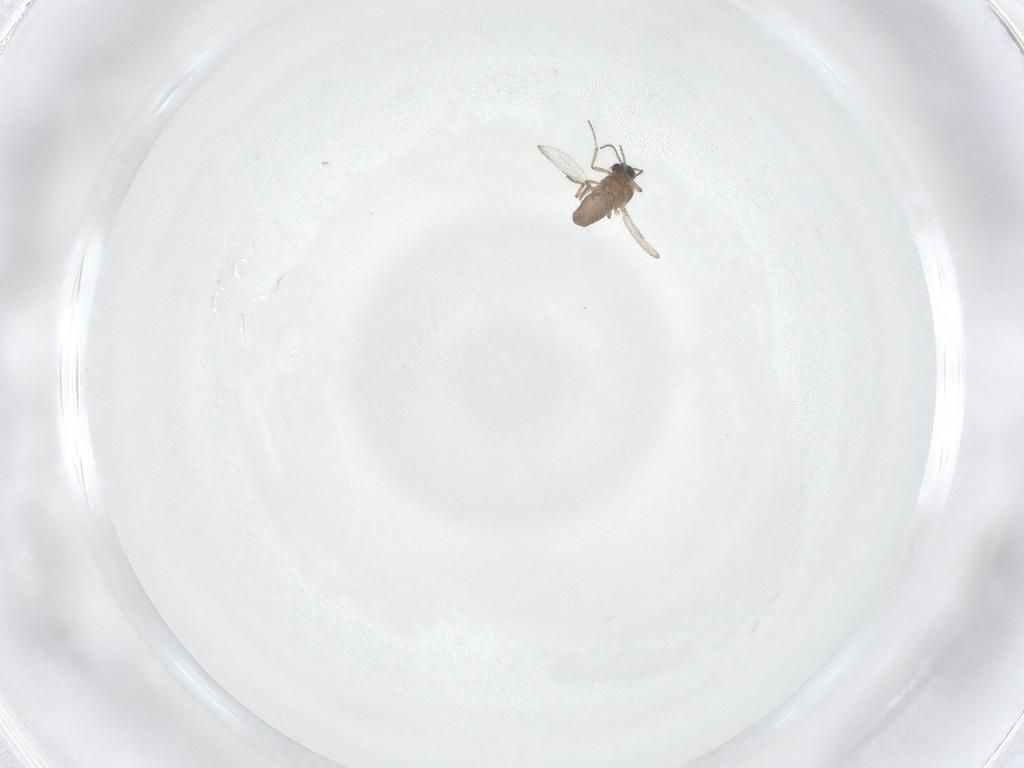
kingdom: Animalia
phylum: Arthropoda
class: Insecta
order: Diptera
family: Ceratopogonidae
